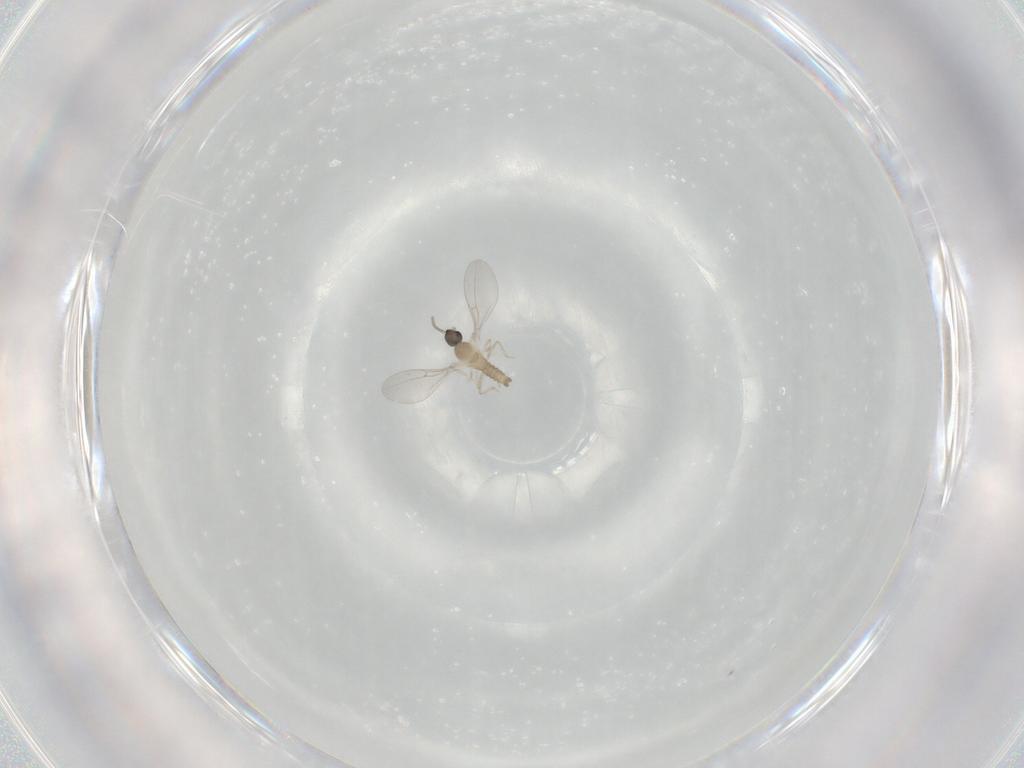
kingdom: Animalia
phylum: Arthropoda
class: Insecta
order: Diptera
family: Cecidomyiidae
